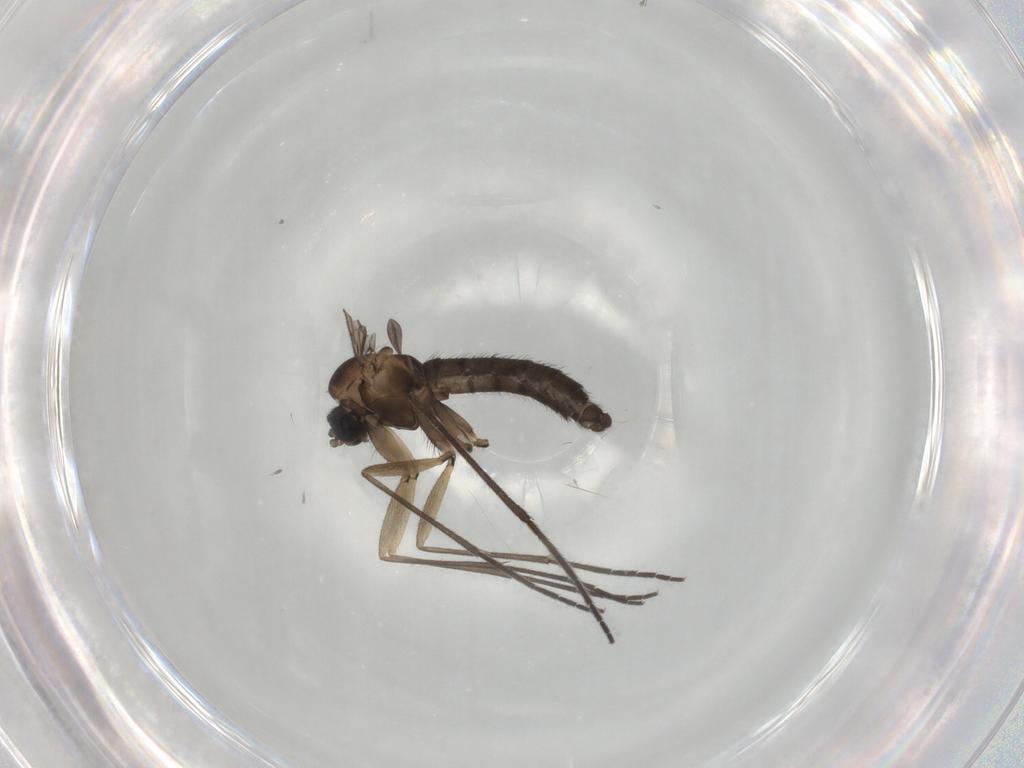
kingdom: Animalia
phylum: Arthropoda
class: Insecta
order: Diptera
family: Sciaridae
